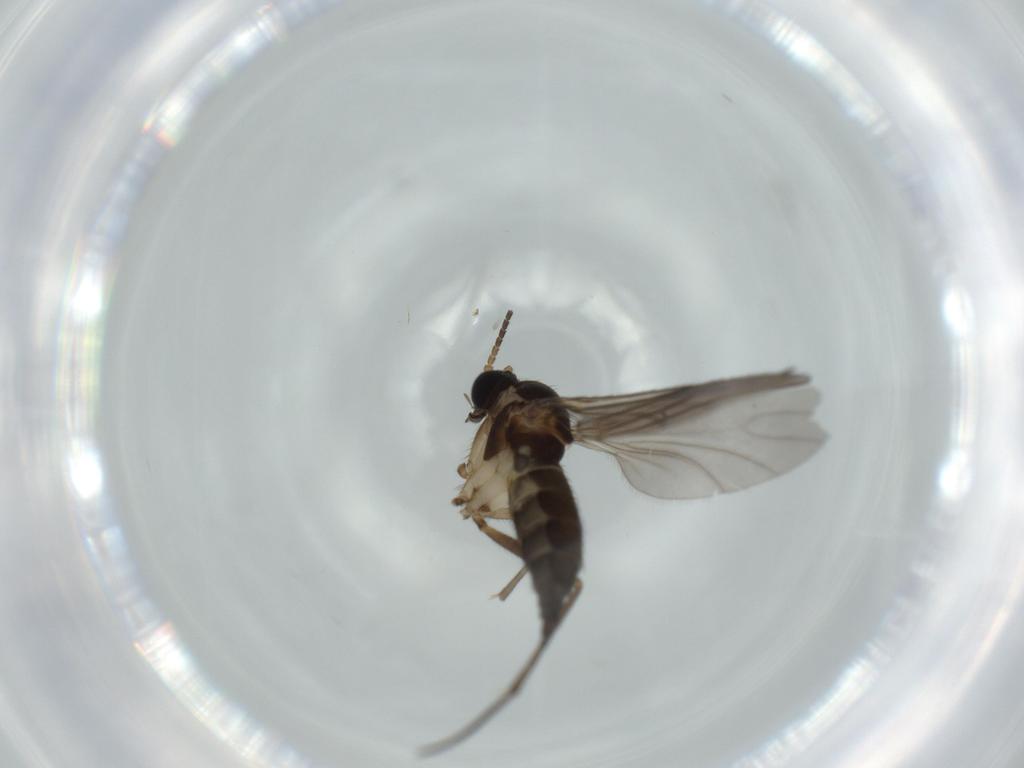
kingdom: Animalia
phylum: Arthropoda
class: Insecta
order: Diptera
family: Sciaridae
